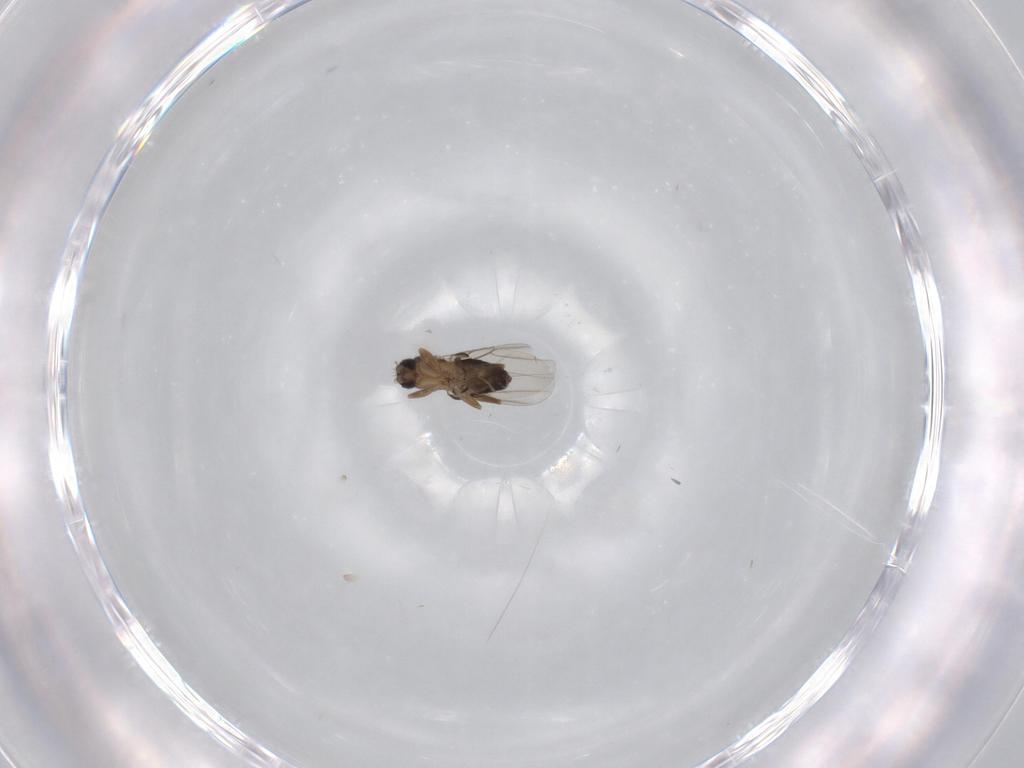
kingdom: Animalia
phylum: Arthropoda
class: Insecta
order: Diptera
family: Phoridae
